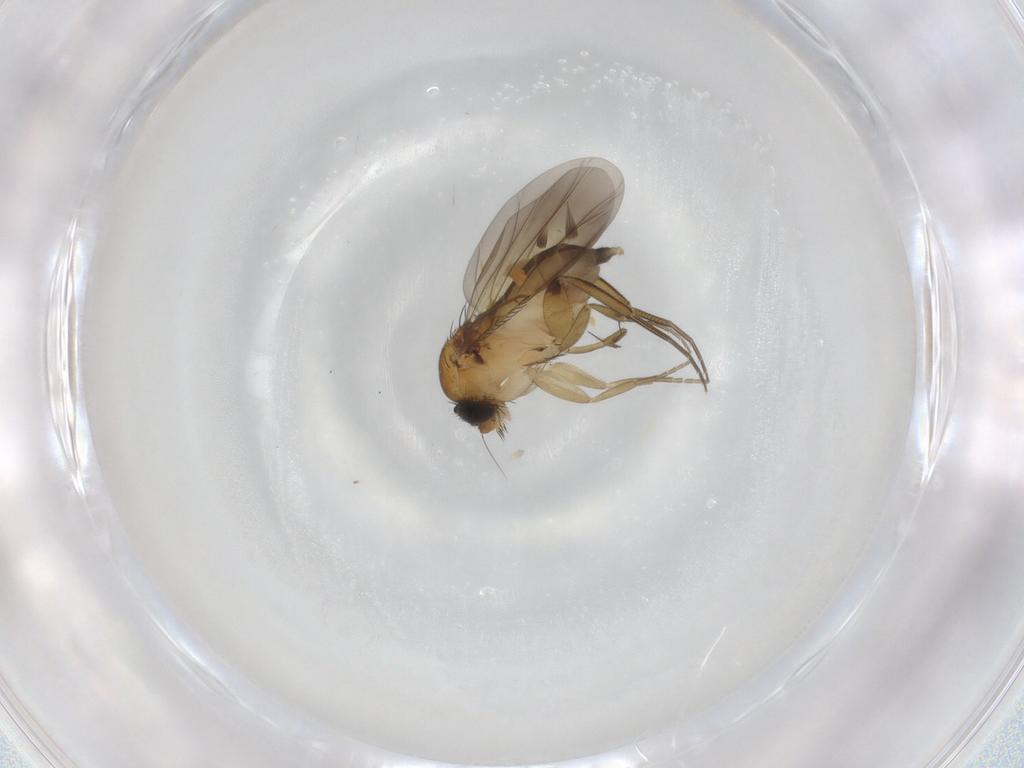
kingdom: Animalia
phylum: Arthropoda
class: Insecta
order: Diptera
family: Phoridae
